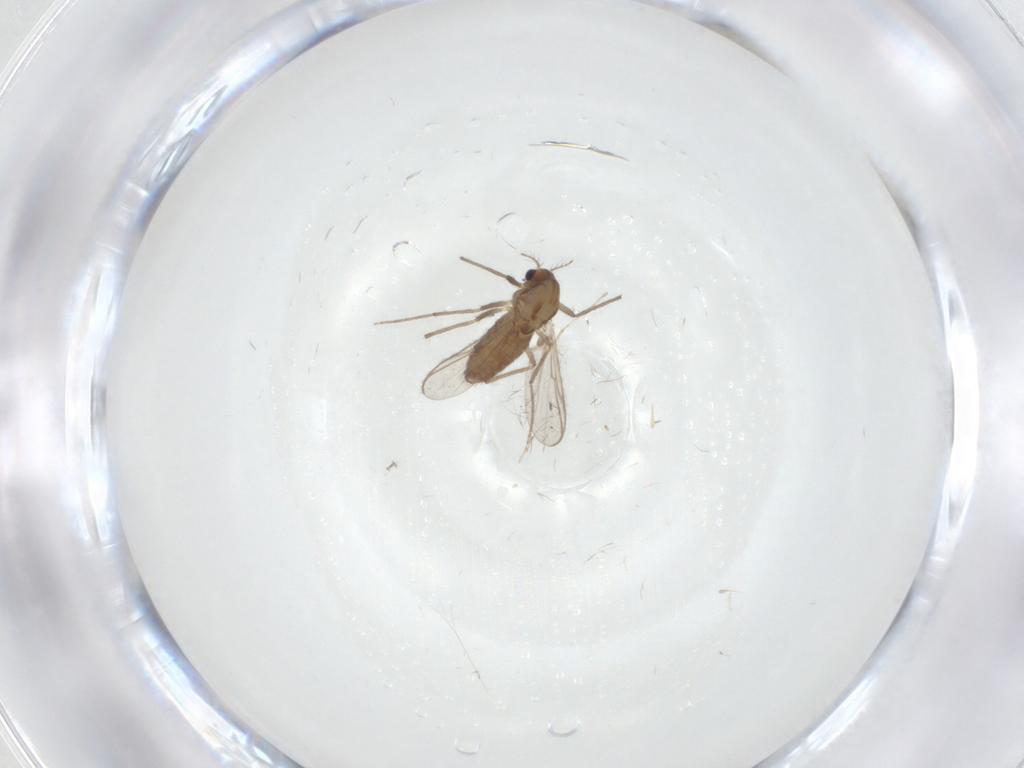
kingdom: Animalia
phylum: Arthropoda
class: Insecta
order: Diptera
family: Chironomidae
